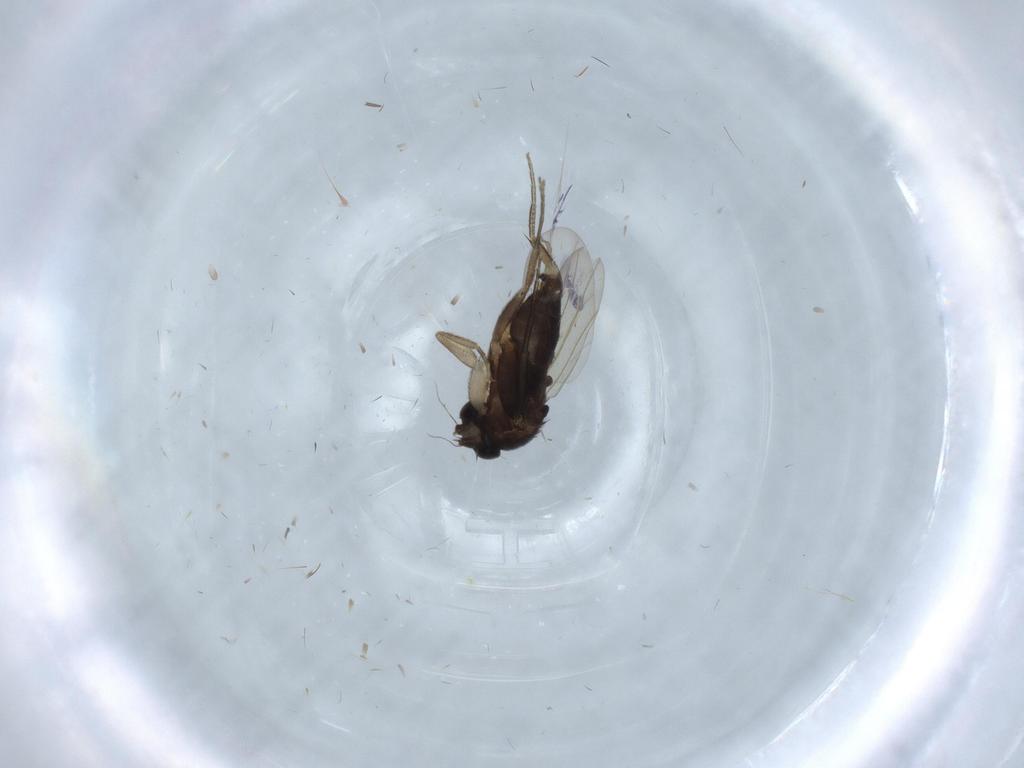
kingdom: Animalia
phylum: Arthropoda
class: Insecta
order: Diptera
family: Phoridae
